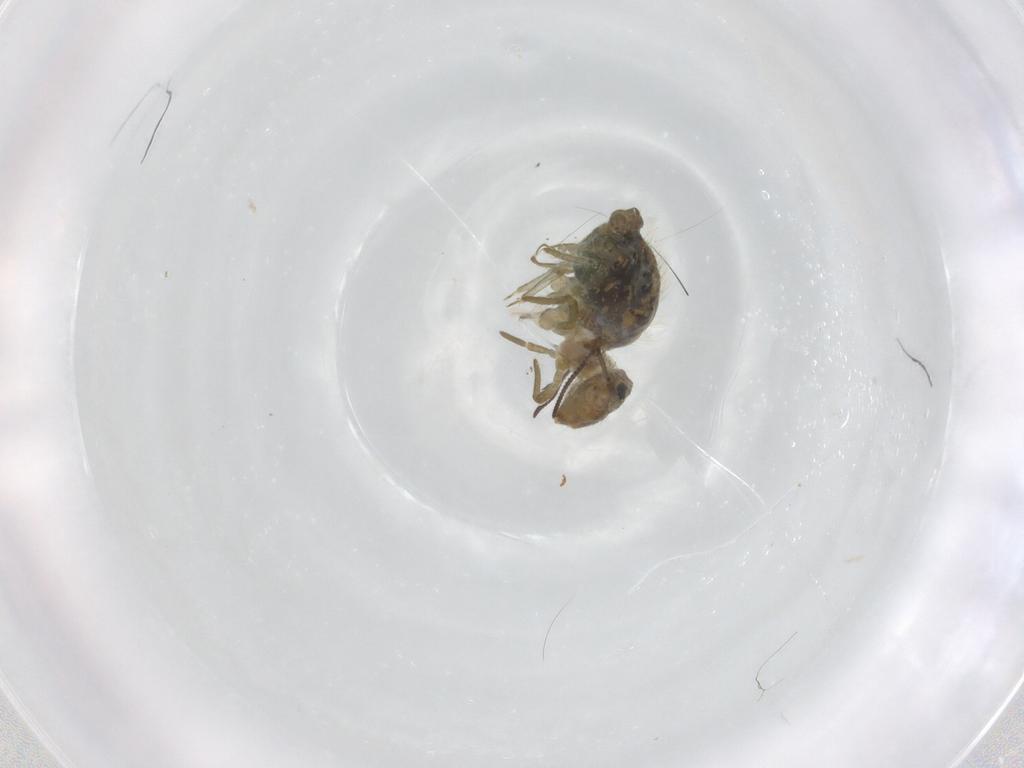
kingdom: Animalia
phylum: Arthropoda
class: Collembola
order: Symphypleona
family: Sminthuridae
